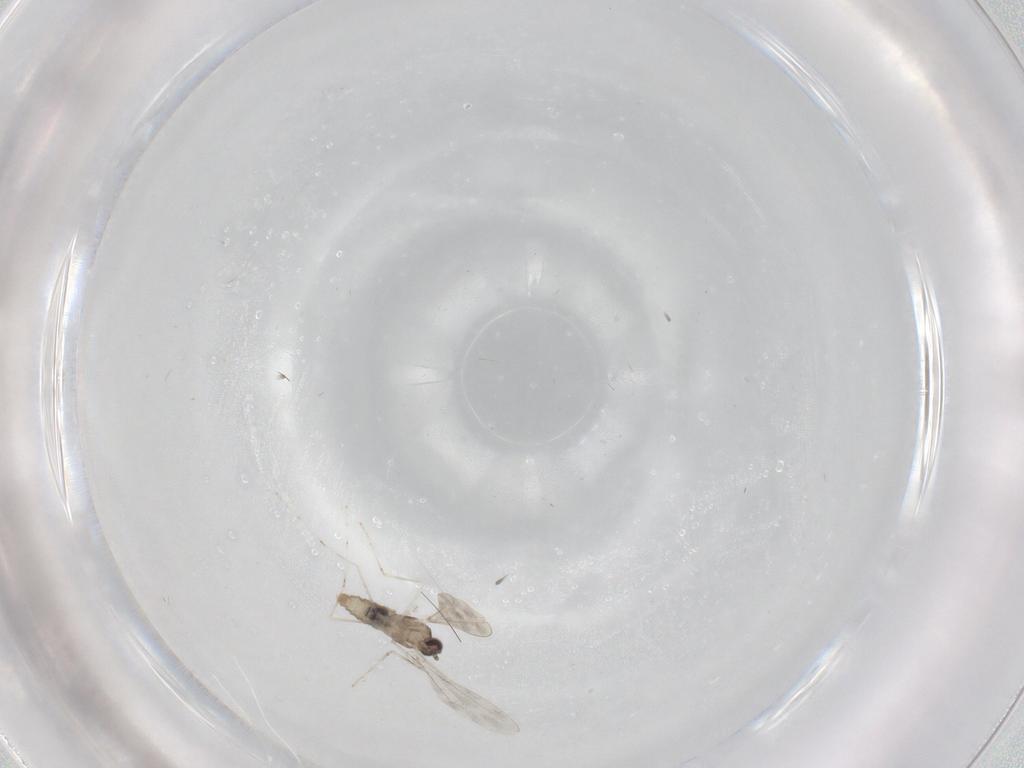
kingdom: Animalia
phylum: Arthropoda
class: Insecta
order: Diptera
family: Cecidomyiidae
